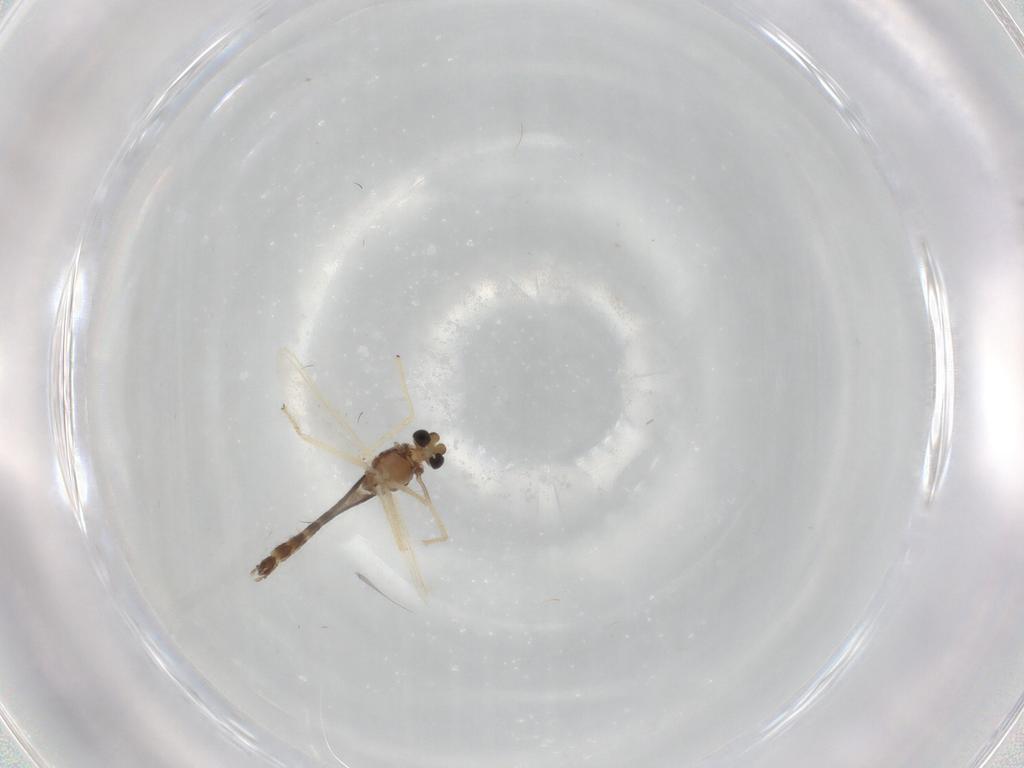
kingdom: Animalia
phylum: Arthropoda
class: Insecta
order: Diptera
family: Chironomidae
